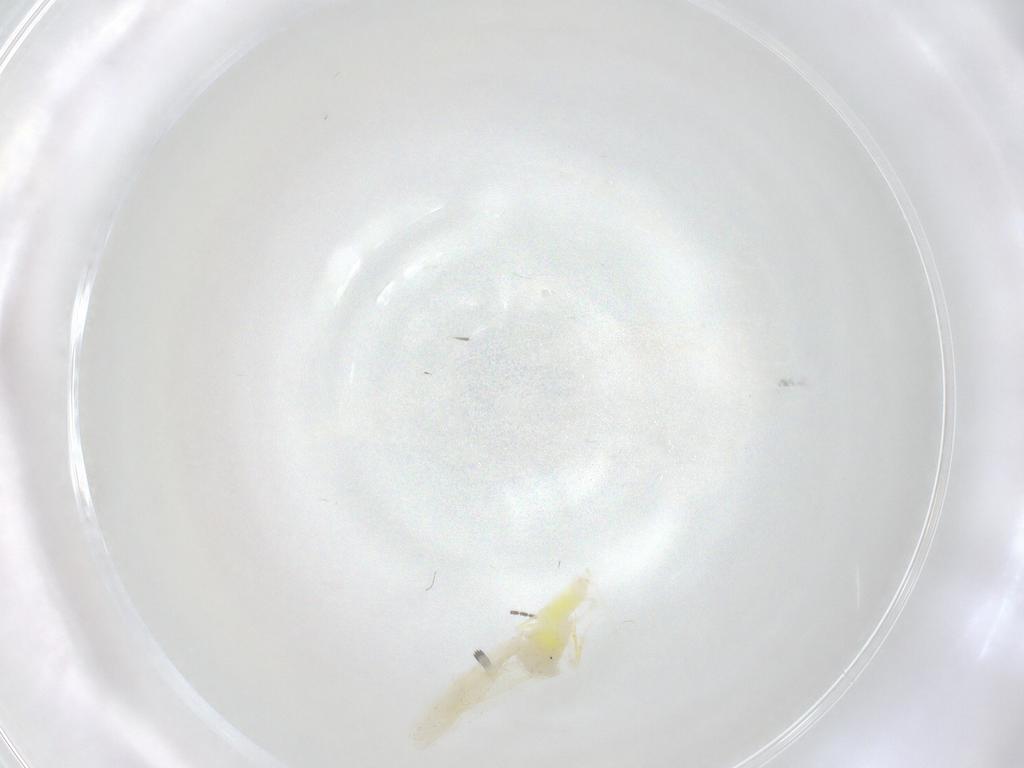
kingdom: Animalia
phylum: Arthropoda
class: Insecta
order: Hemiptera
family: Aleyrodidae
